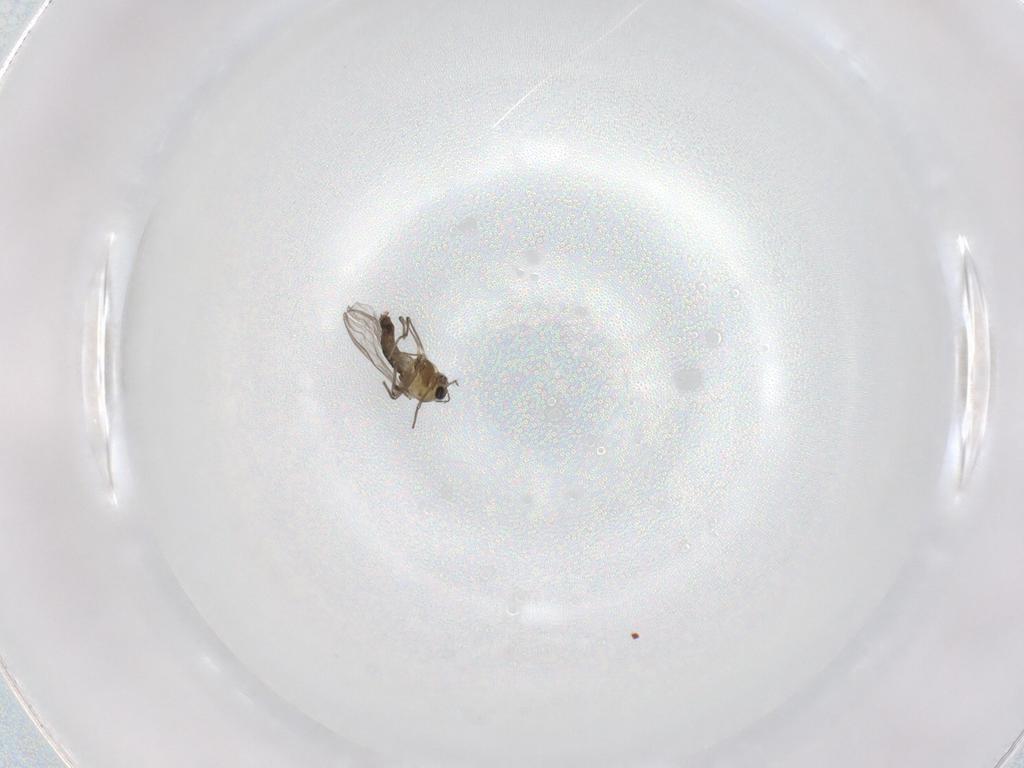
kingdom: Animalia
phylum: Arthropoda
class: Insecta
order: Diptera
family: Chironomidae
